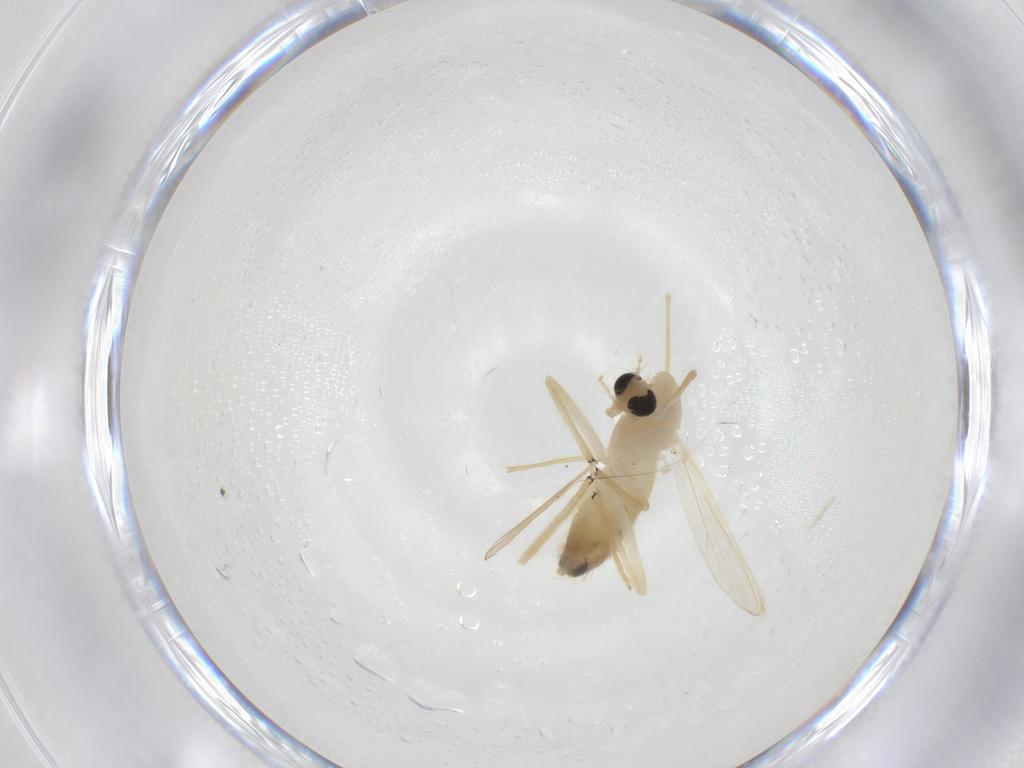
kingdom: Animalia
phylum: Arthropoda
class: Insecta
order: Diptera
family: Chironomidae
